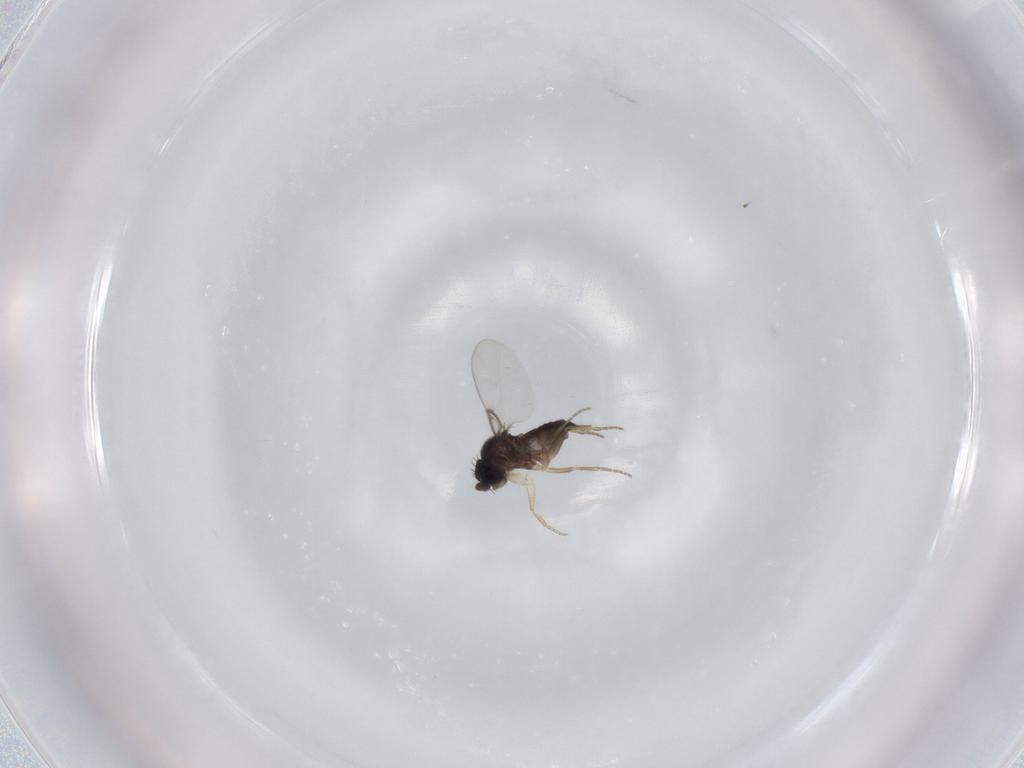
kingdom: Animalia
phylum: Arthropoda
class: Insecta
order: Diptera
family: Phoridae
